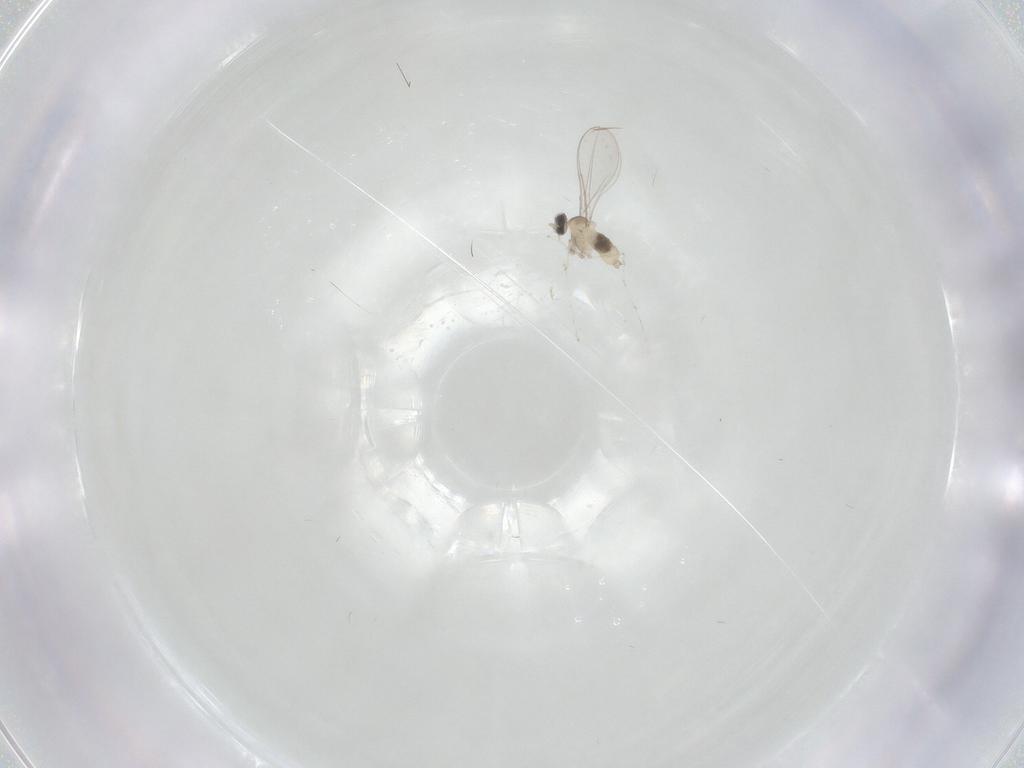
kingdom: Animalia
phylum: Arthropoda
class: Insecta
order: Diptera
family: Cecidomyiidae
